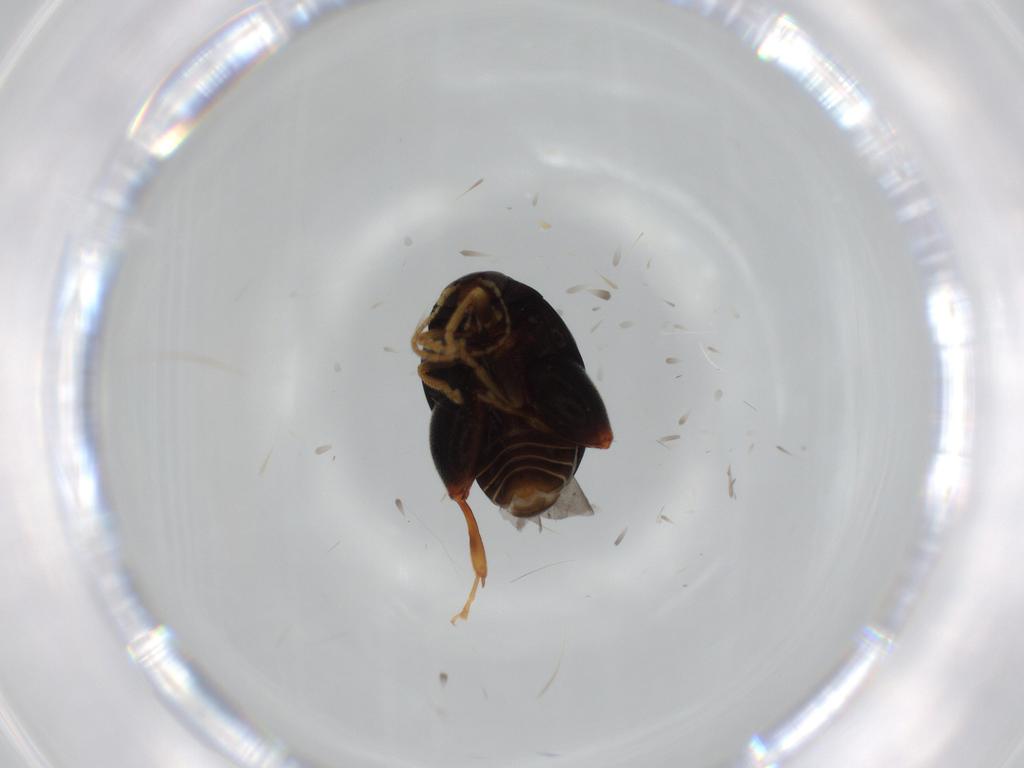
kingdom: Animalia
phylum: Arthropoda
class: Insecta
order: Coleoptera
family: Chrysomelidae
